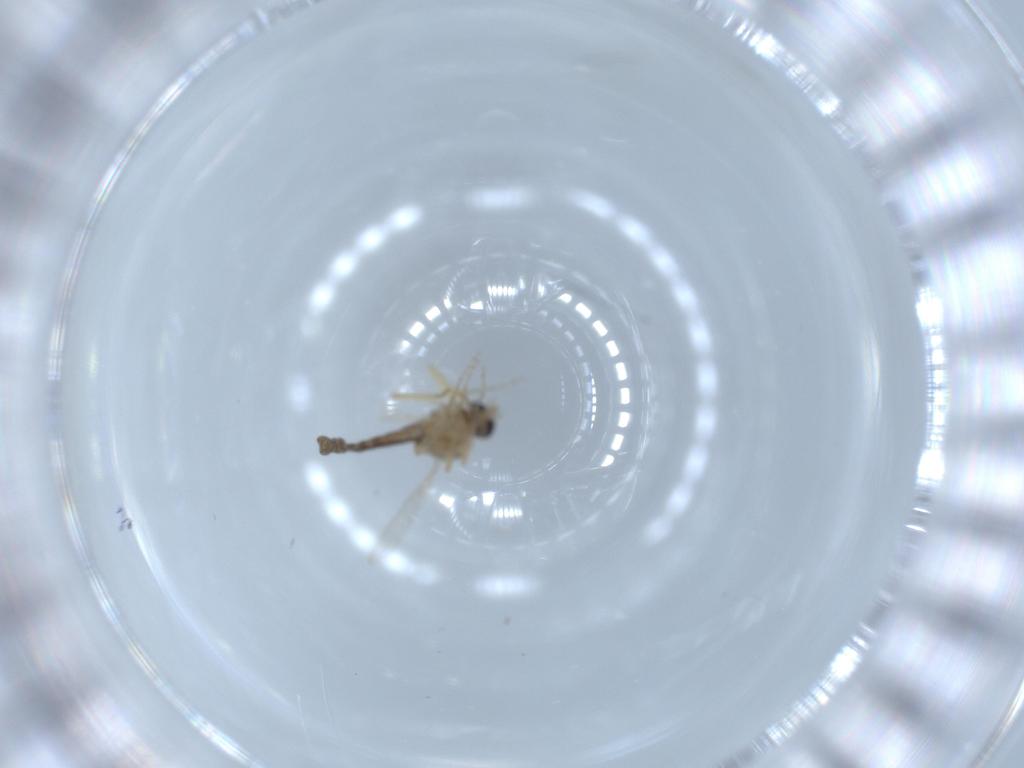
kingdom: Animalia
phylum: Arthropoda
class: Insecta
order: Diptera
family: Ceratopogonidae
